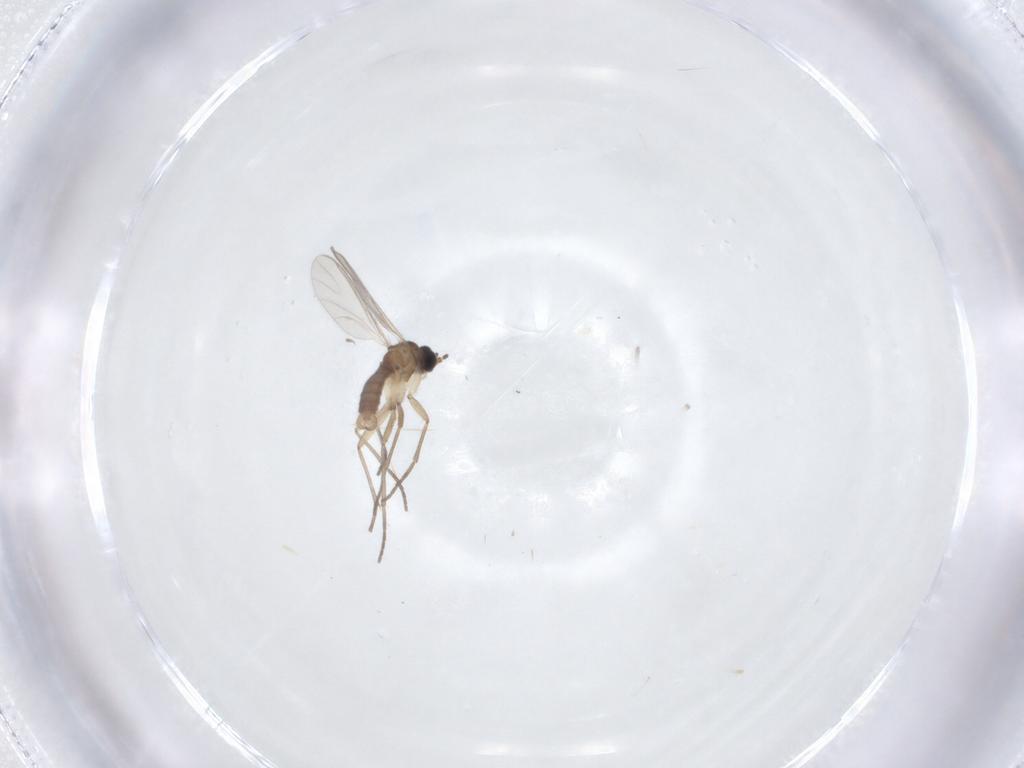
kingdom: Animalia
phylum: Arthropoda
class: Insecta
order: Diptera
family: Sciaridae
